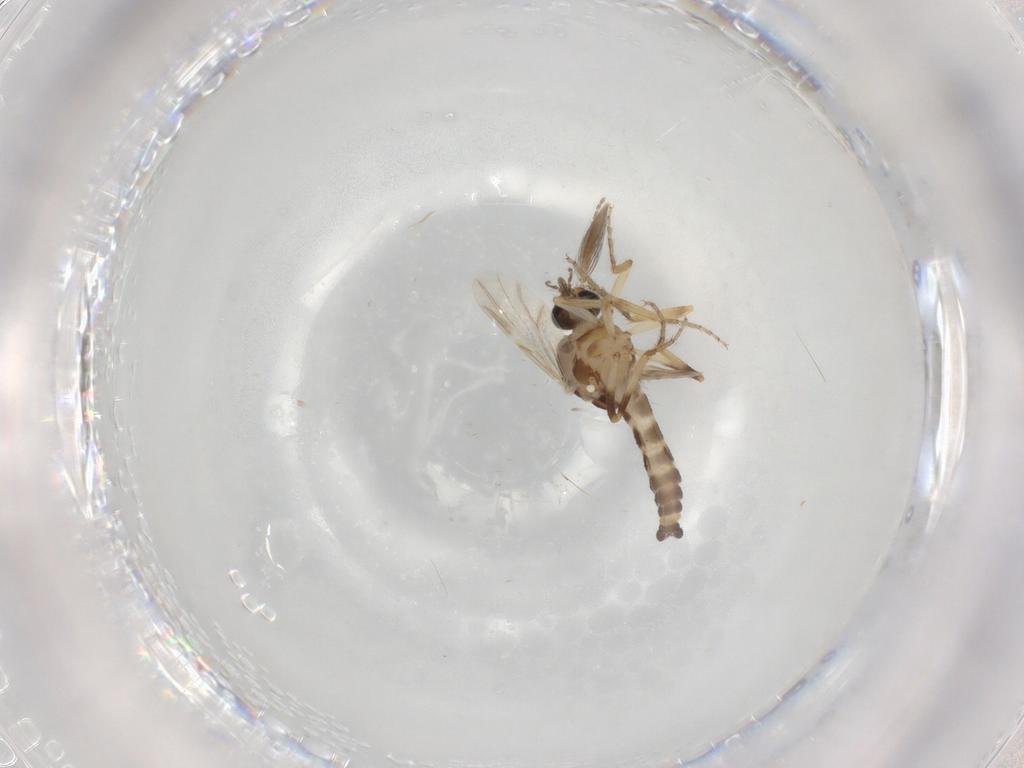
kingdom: Animalia
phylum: Arthropoda
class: Insecta
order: Diptera
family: Ceratopogonidae
